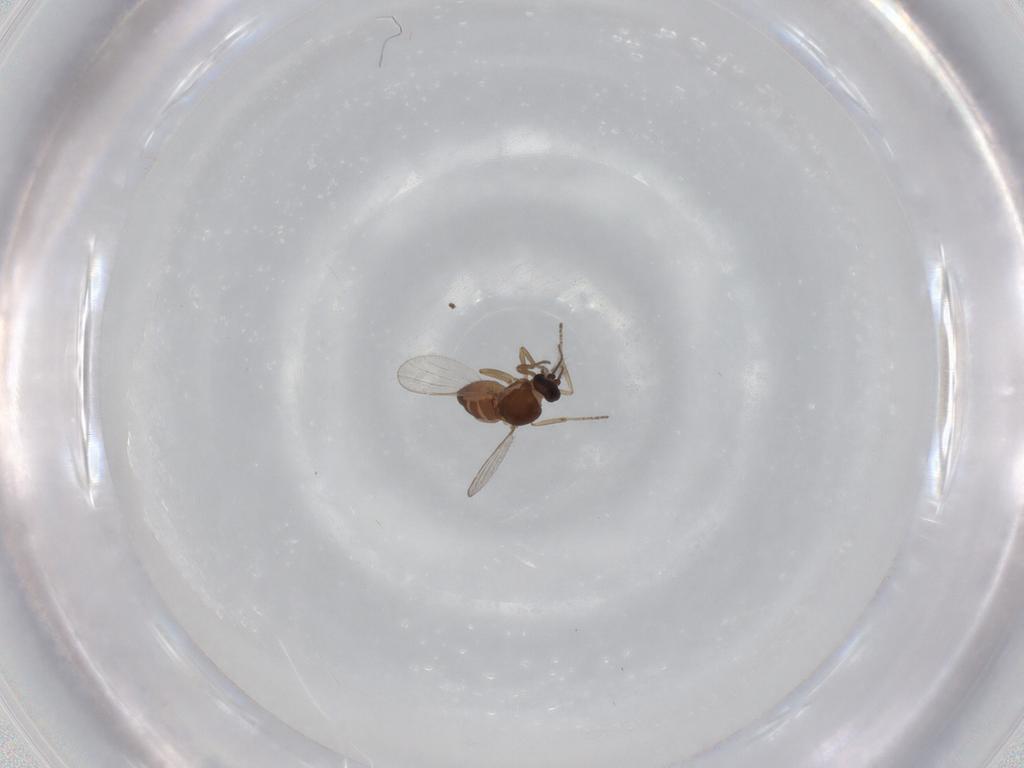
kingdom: Animalia
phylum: Arthropoda
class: Insecta
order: Diptera
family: Ceratopogonidae
